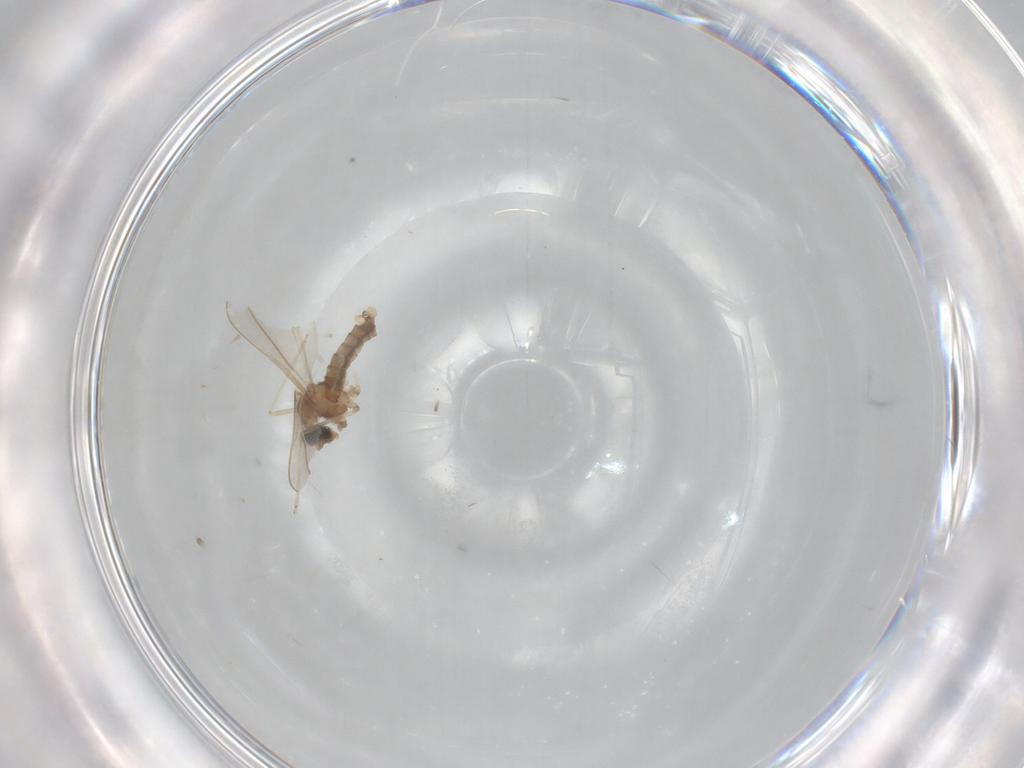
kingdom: Animalia
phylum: Arthropoda
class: Insecta
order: Diptera
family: Cecidomyiidae
